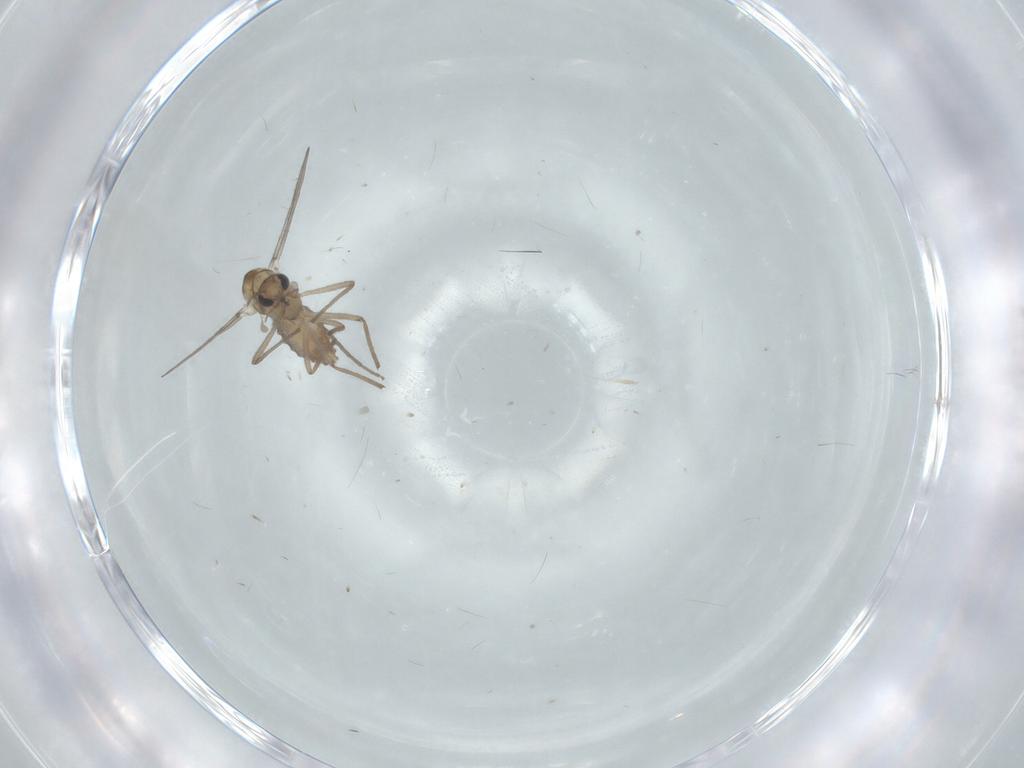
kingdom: Animalia
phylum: Arthropoda
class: Insecta
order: Diptera
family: Chironomidae
